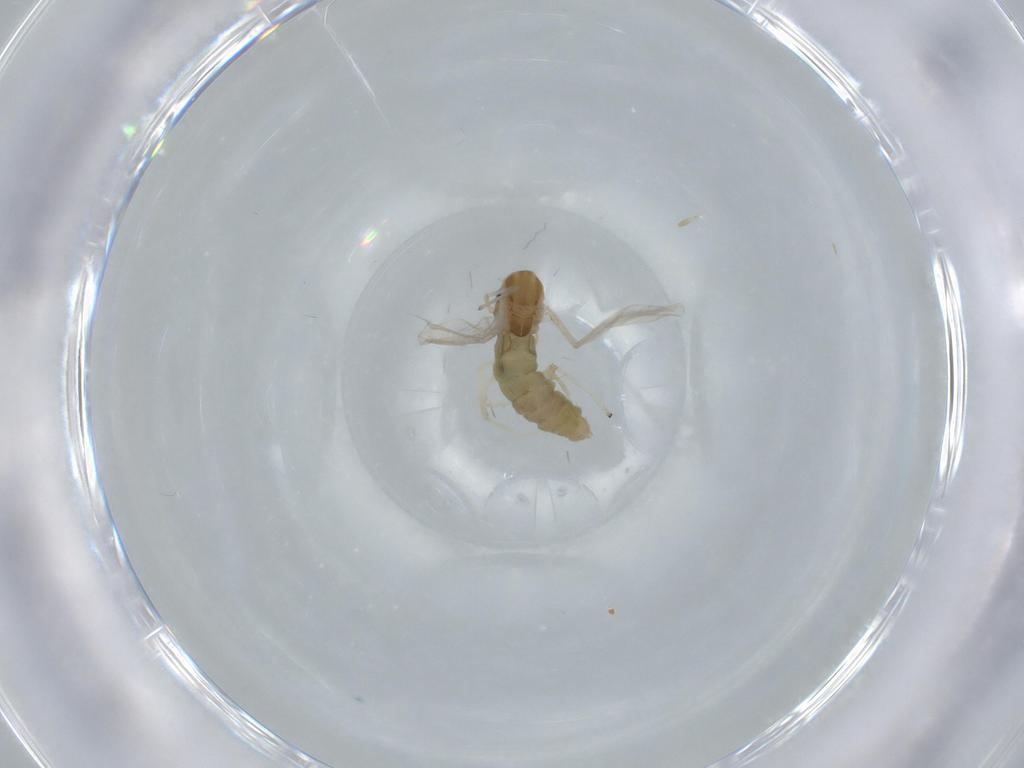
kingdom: Animalia
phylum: Arthropoda
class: Insecta
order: Diptera
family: Chironomidae
